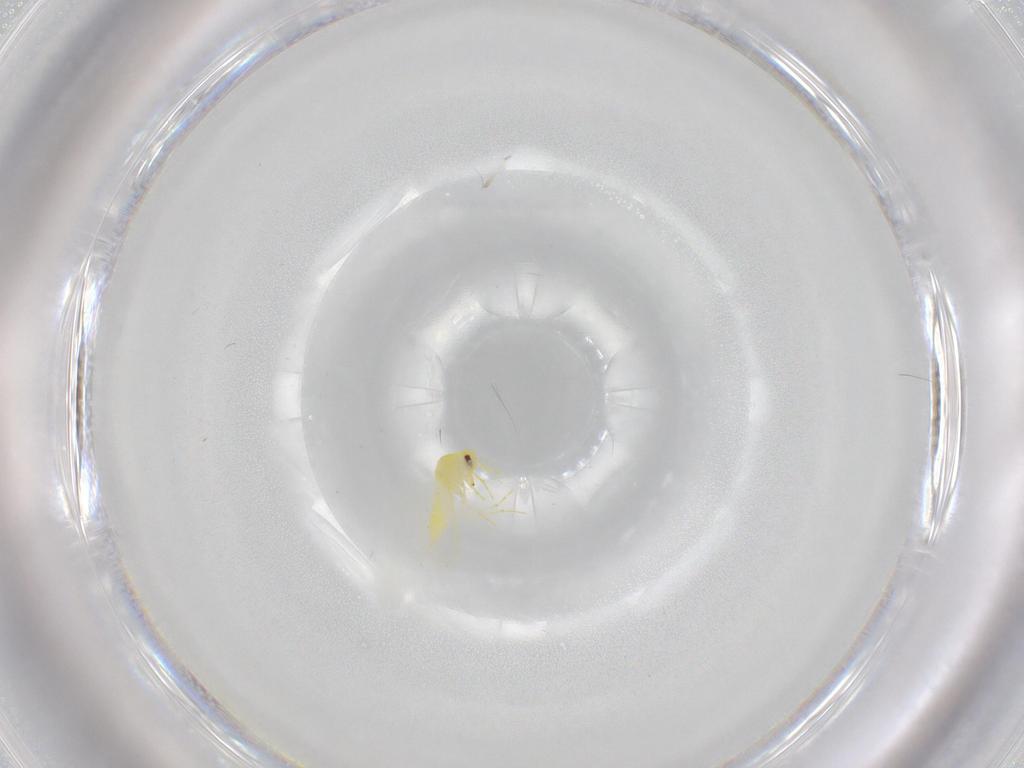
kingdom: Animalia
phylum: Arthropoda
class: Insecta
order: Hemiptera
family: Aleyrodidae
